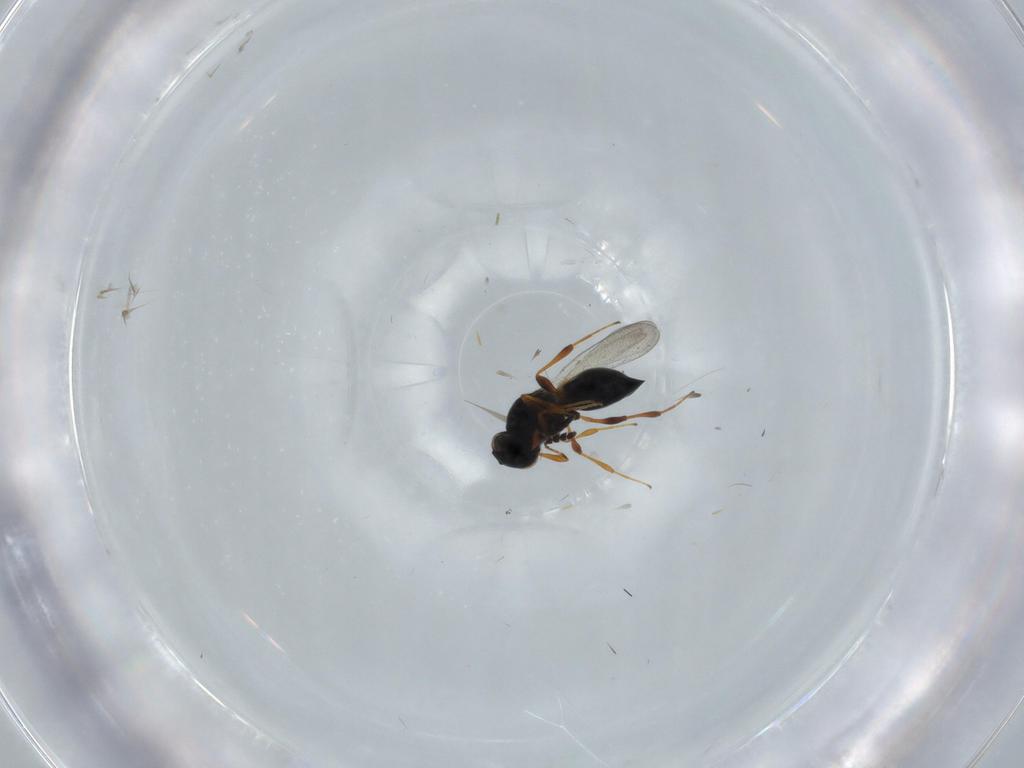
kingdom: Animalia
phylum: Arthropoda
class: Insecta
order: Hymenoptera
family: Platygastridae
